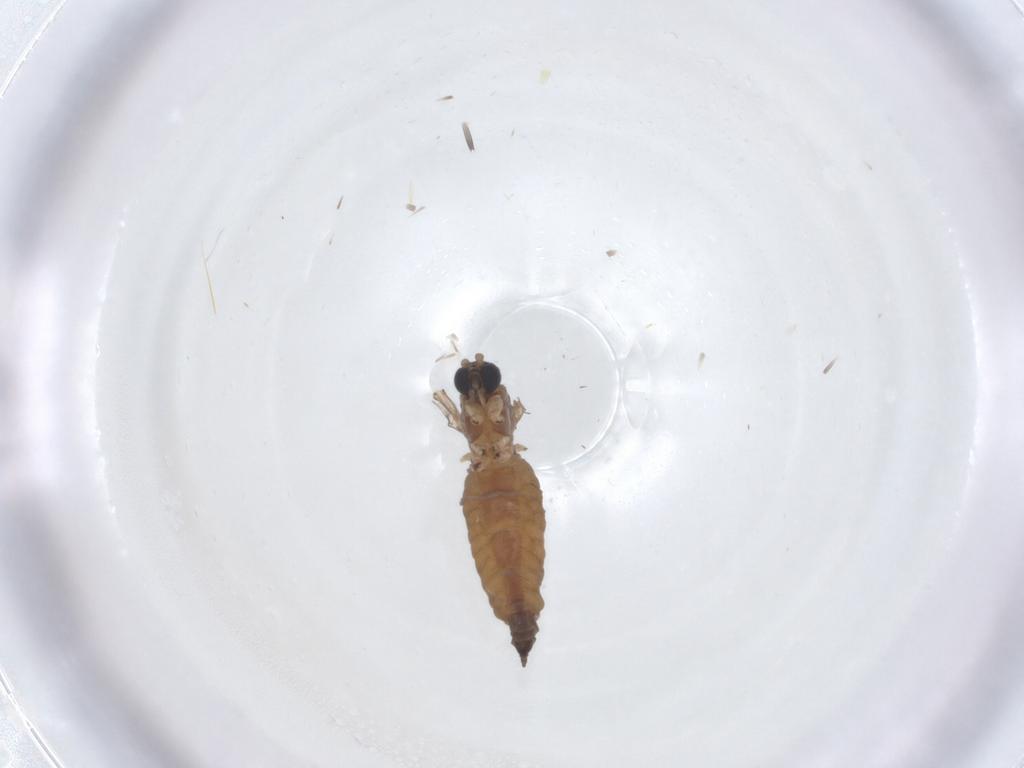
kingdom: Animalia
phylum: Arthropoda
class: Insecta
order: Diptera
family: Sciaridae
